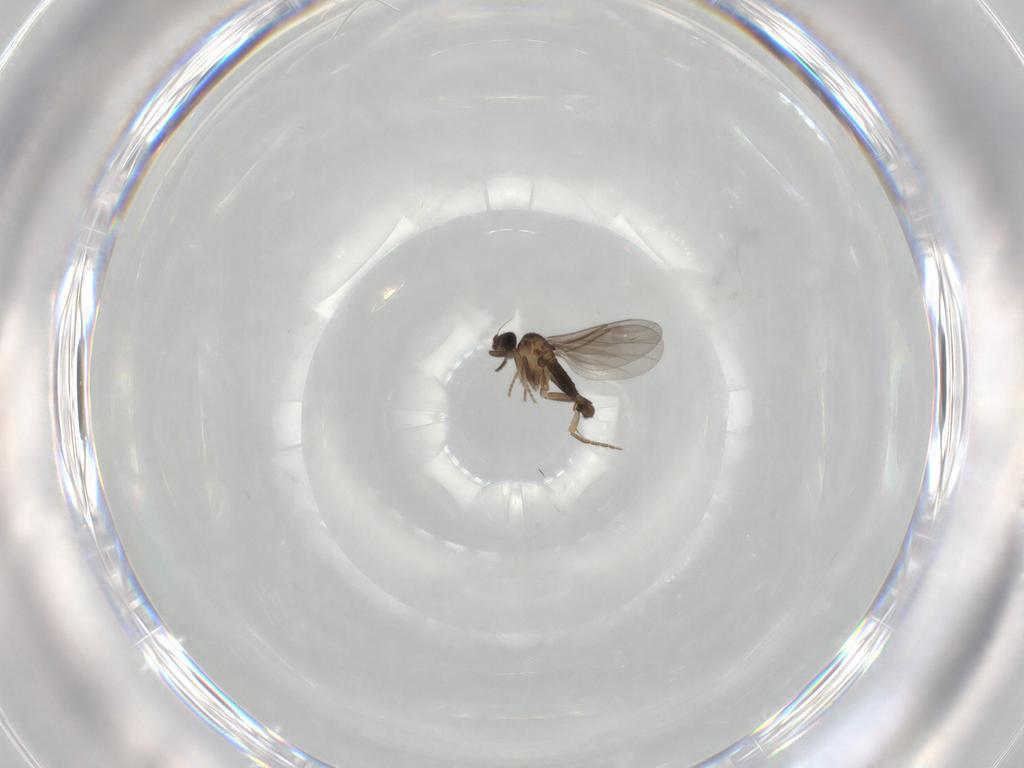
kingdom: Animalia
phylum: Arthropoda
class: Insecta
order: Diptera
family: Phoridae
